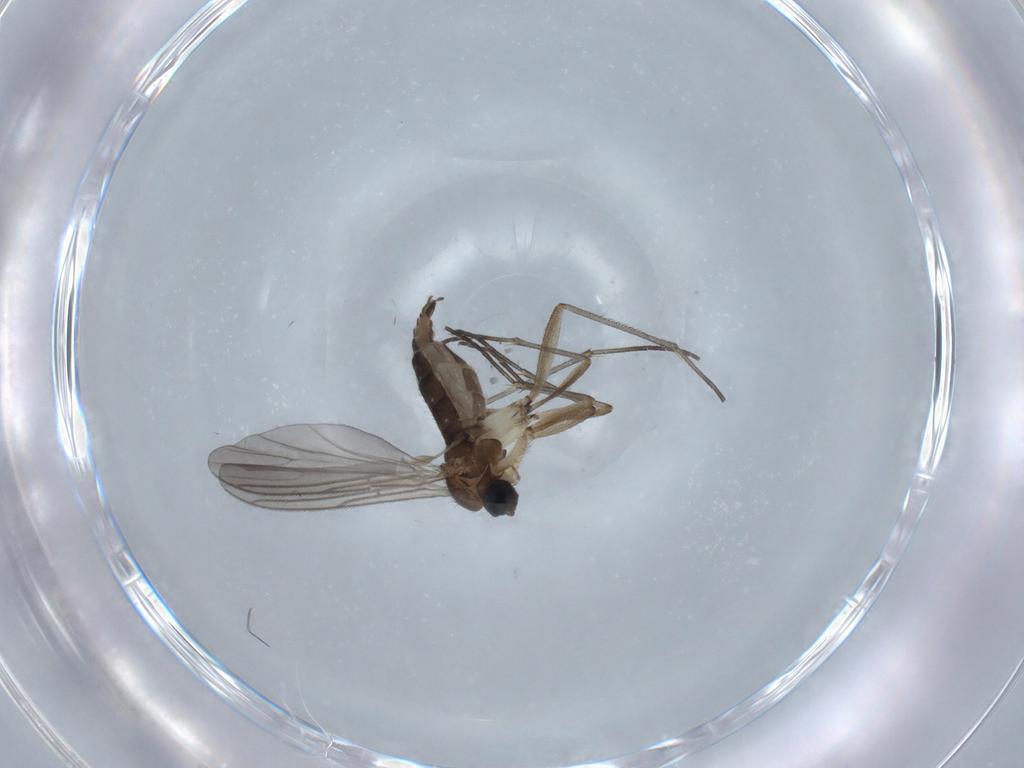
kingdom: Animalia
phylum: Arthropoda
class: Insecta
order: Diptera
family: Sciaridae
